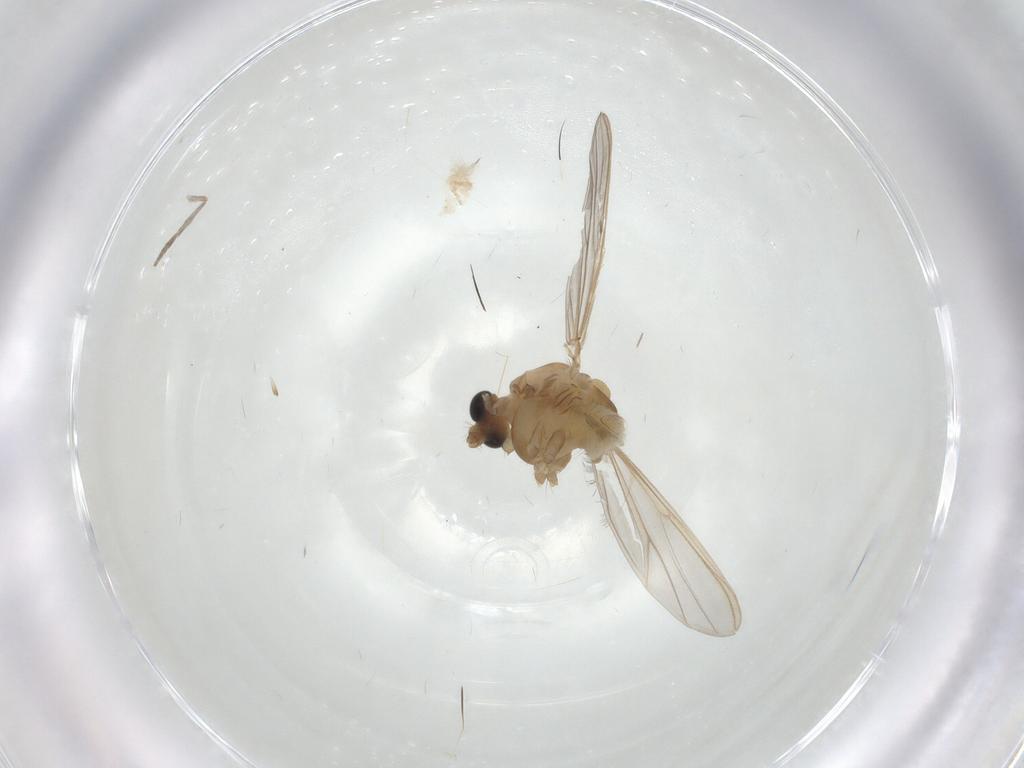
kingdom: Animalia
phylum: Arthropoda
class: Insecta
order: Diptera
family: Chironomidae
